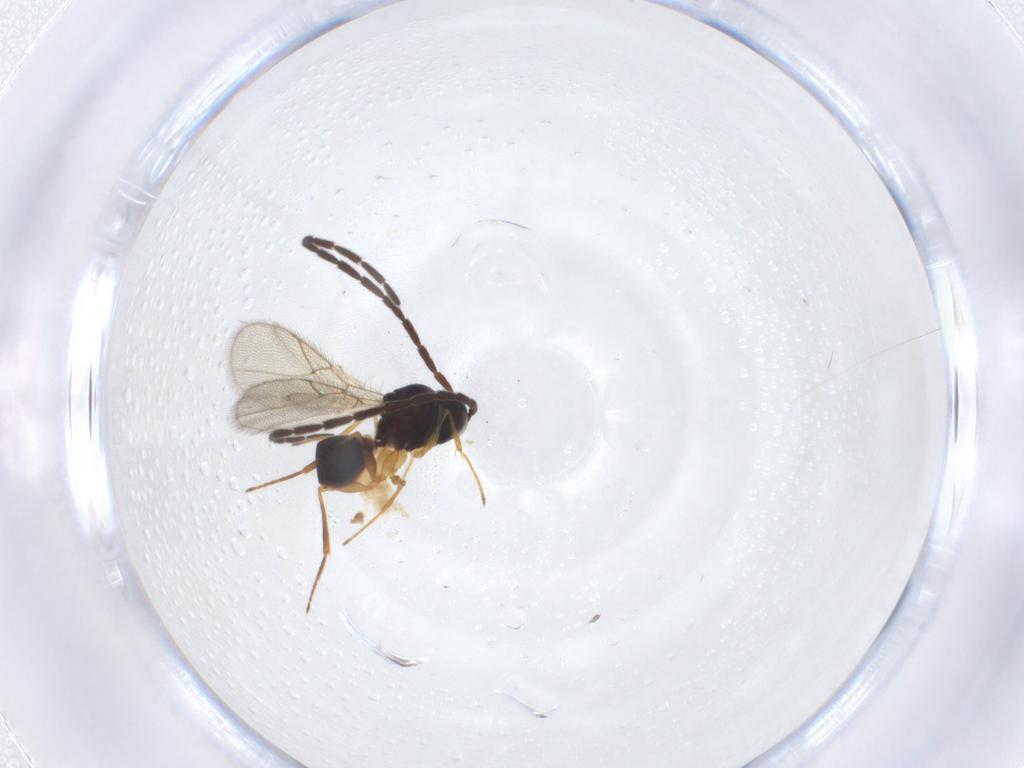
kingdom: Animalia
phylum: Arthropoda
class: Insecta
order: Hymenoptera
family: Figitidae
